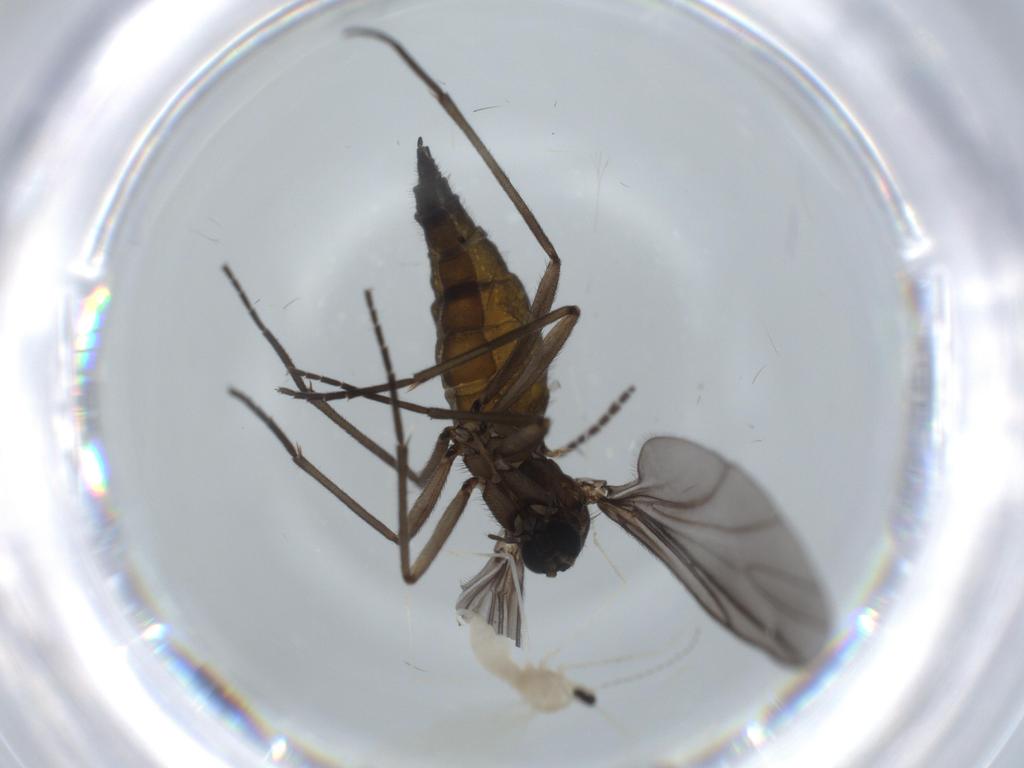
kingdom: Animalia
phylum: Arthropoda
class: Insecta
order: Diptera
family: Sciaridae
